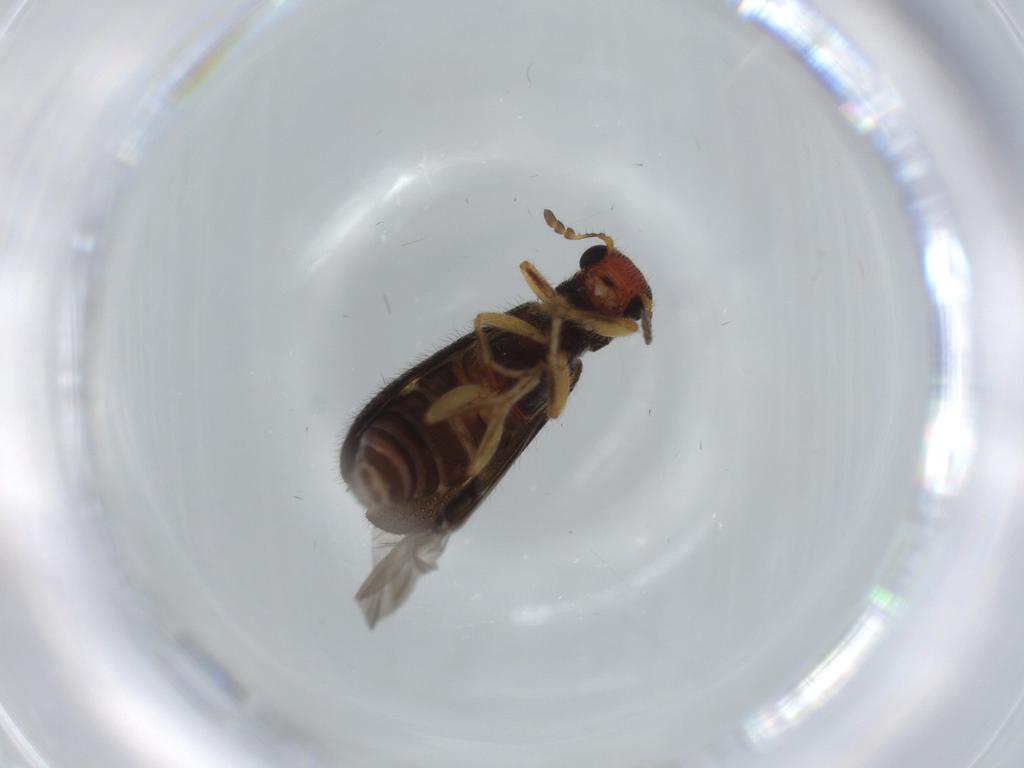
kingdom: Animalia
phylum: Arthropoda
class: Insecta
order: Coleoptera
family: Cleridae
